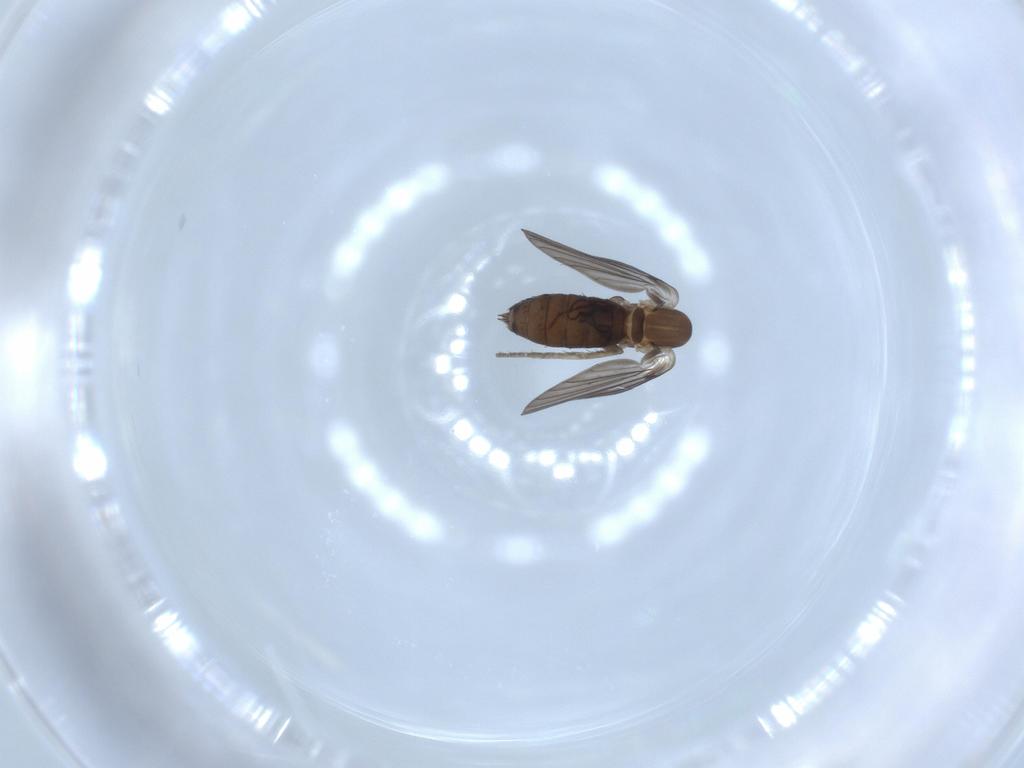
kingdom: Animalia
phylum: Arthropoda
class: Insecta
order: Diptera
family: Psychodidae
